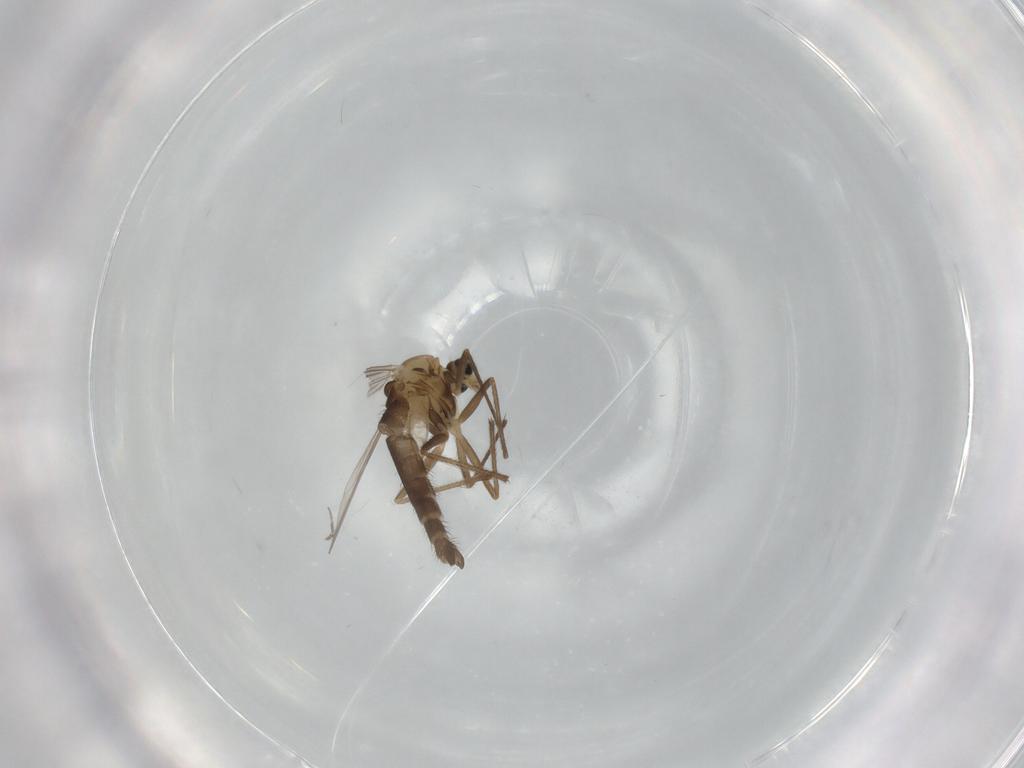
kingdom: Animalia
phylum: Arthropoda
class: Insecta
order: Diptera
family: Chironomidae
